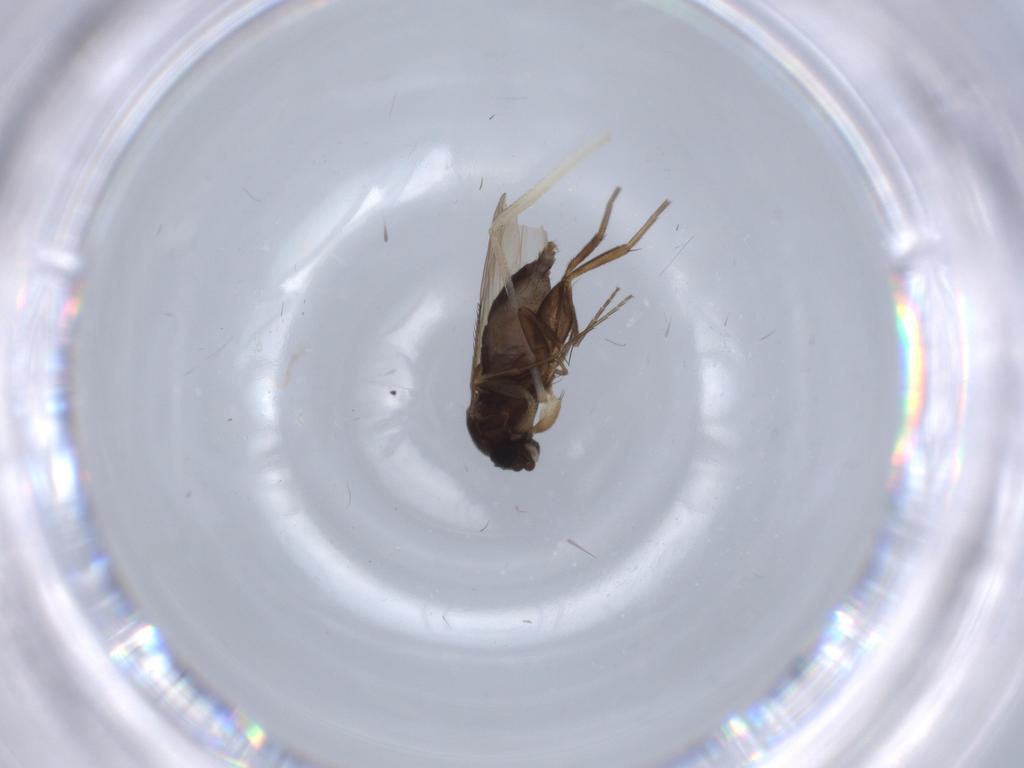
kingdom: Animalia
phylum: Arthropoda
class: Insecta
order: Diptera
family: Phoridae
